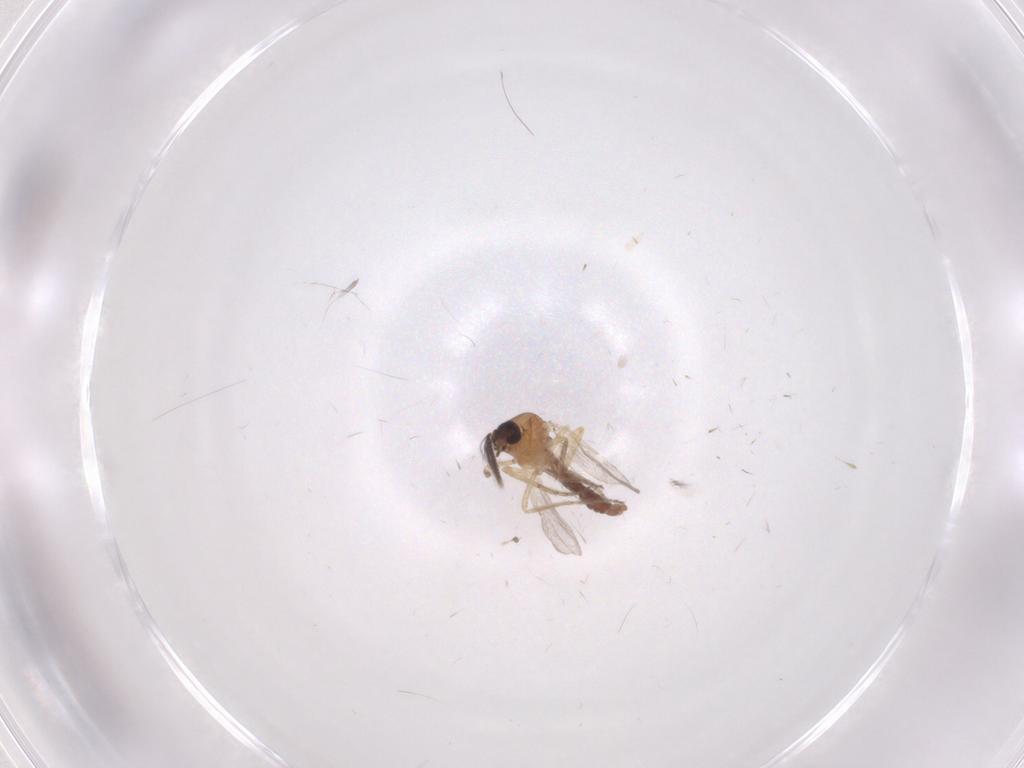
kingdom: Animalia
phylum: Arthropoda
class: Insecta
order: Diptera
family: Ceratopogonidae
